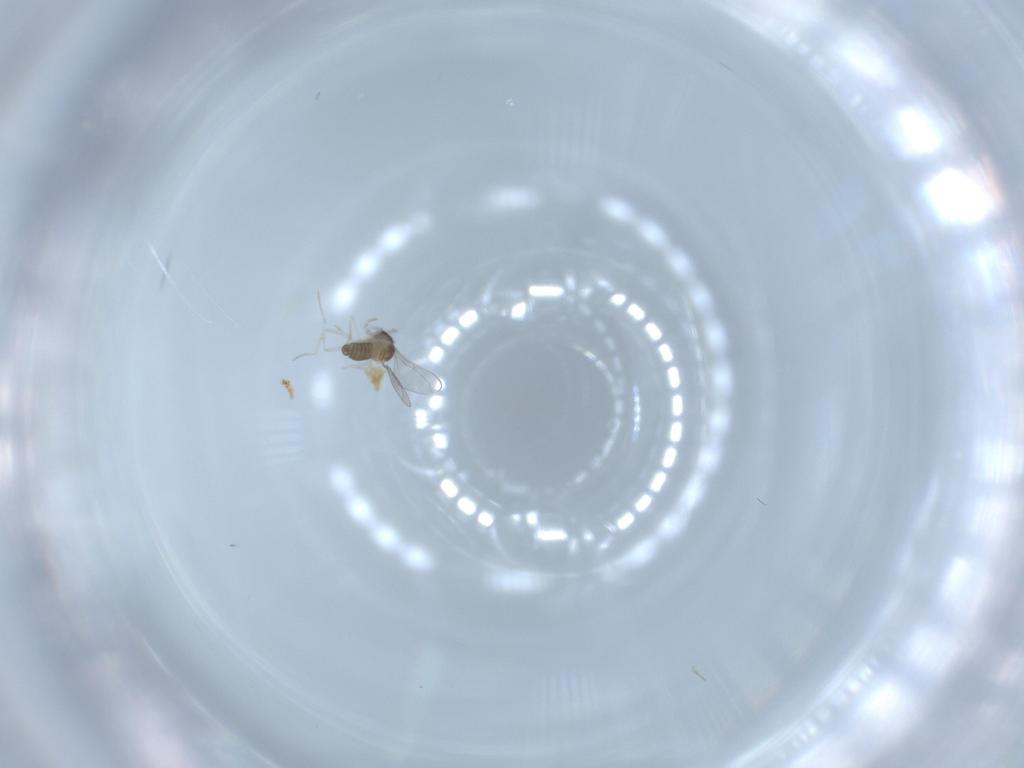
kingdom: Animalia
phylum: Arthropoda
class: Insecta
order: Diptera
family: Cecidomyiidae
